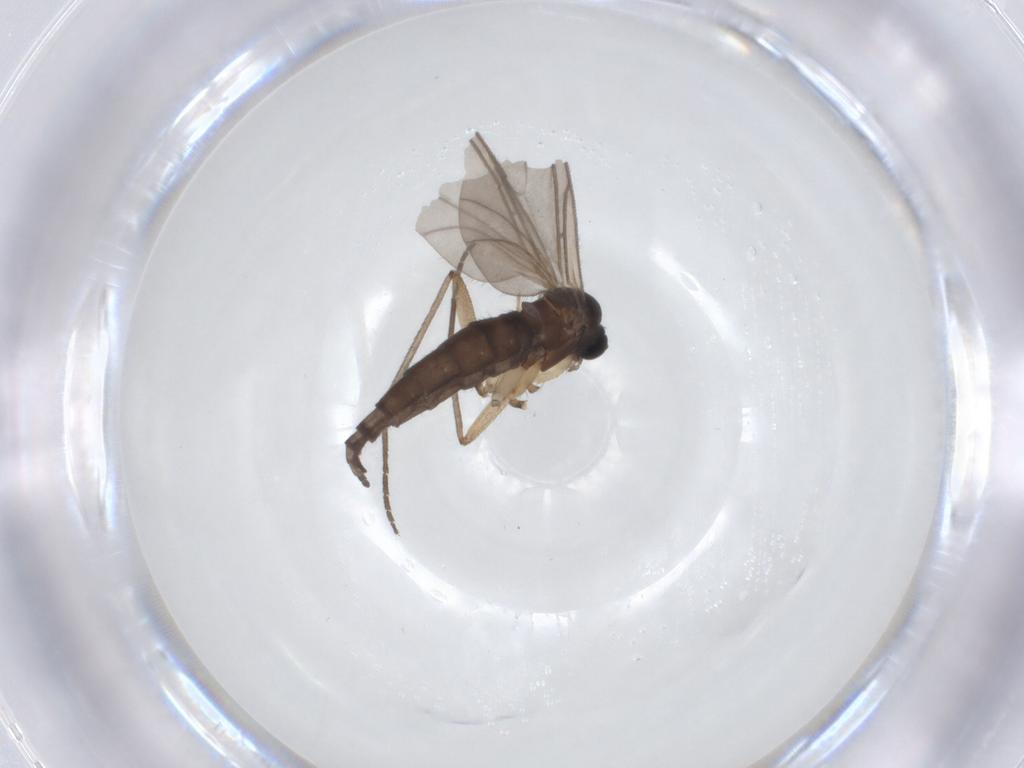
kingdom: Animalia
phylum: Arthropoda
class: Insecta
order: Diptera
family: Sciaridae
